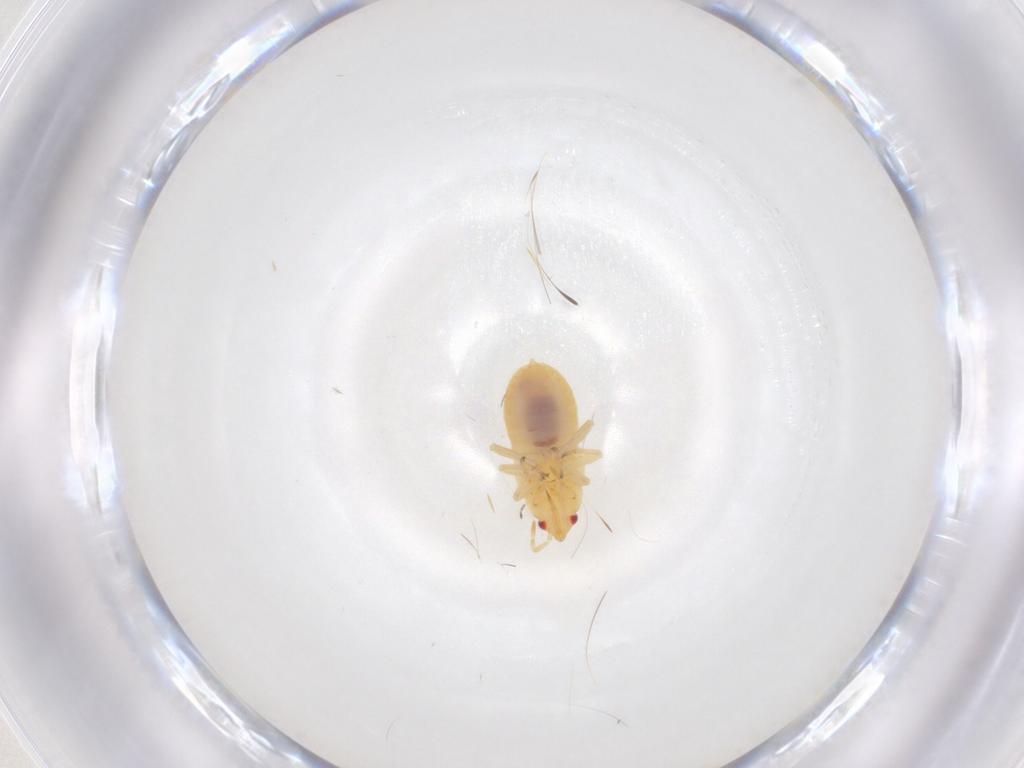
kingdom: Animalia
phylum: Arthropoda
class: Insecta
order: Hemiptera
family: Anthocoridae
